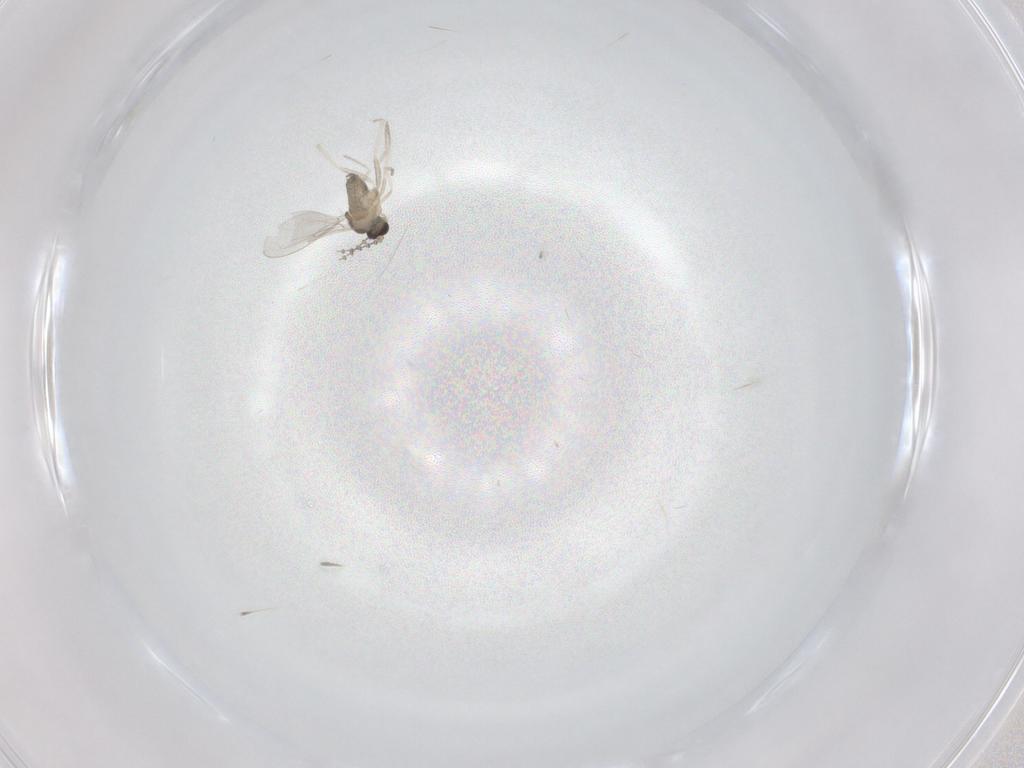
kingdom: Animalia
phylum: Arthropoda
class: Insecta
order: Diptera
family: Cecidomyiidae
